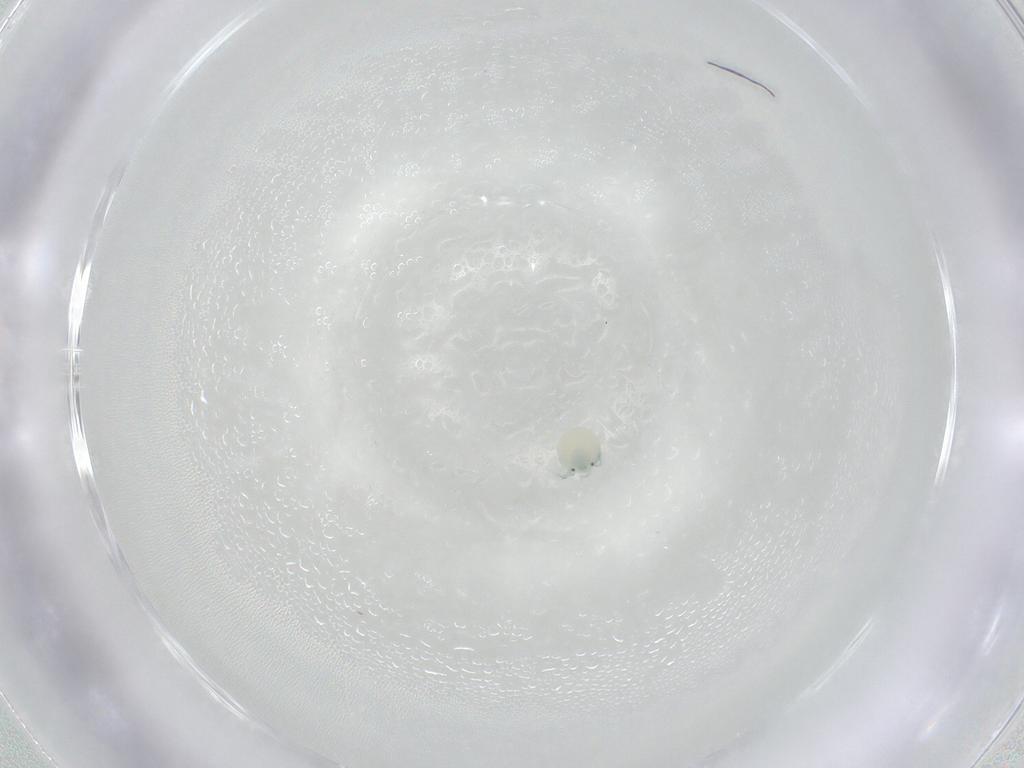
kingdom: Animalia
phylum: Arthropoda
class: Arachnida
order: Trombidiformes
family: Arrenuridae
